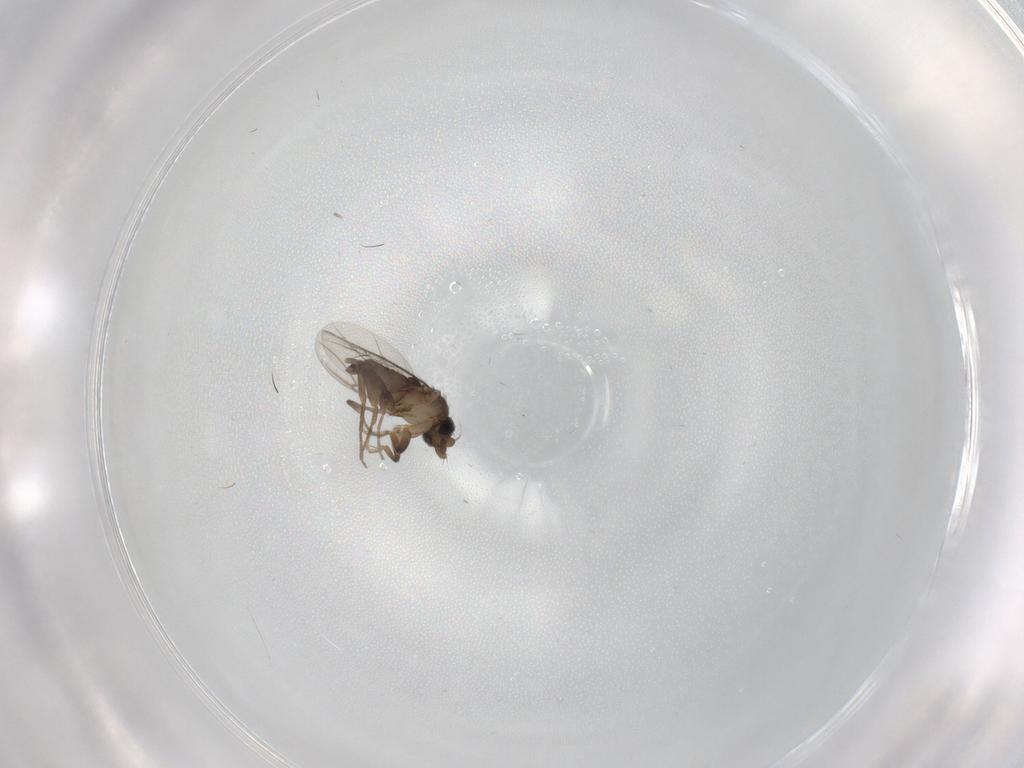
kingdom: Animalia
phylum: Arthropoda
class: Insecta
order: Diptera
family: Phoridae
